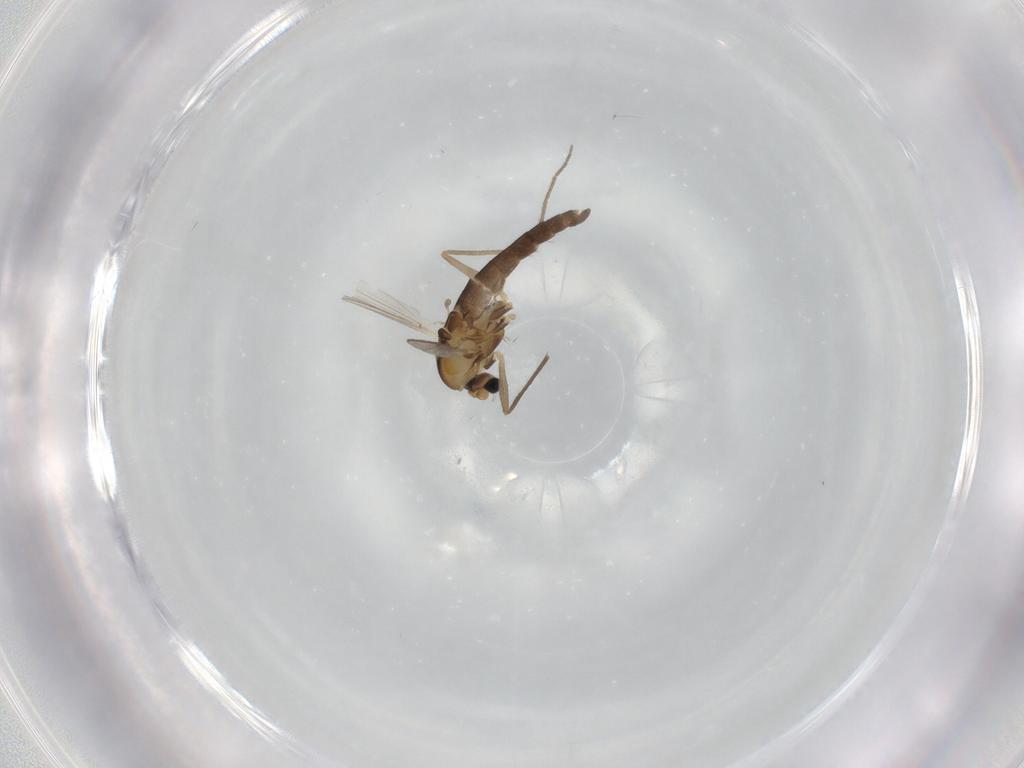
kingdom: Animalia
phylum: Arthropoda
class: Insecta
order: Diptera
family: Chironomidae
